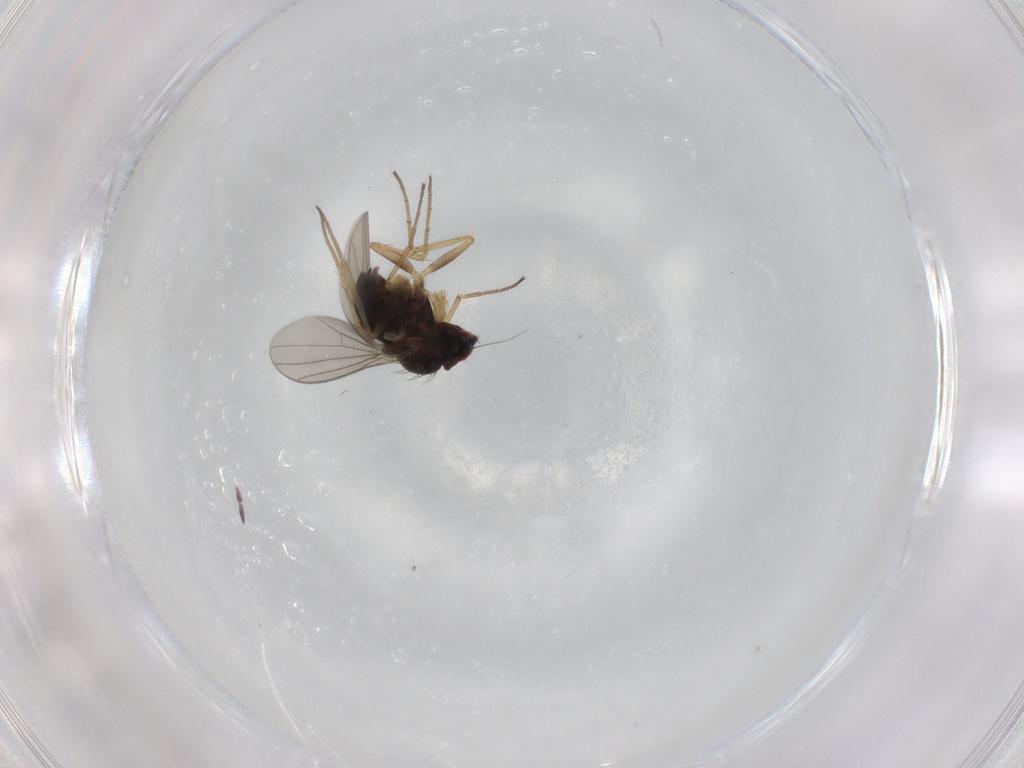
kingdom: Animalia
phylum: Arthropoda
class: Insecta
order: Diptera
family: Dolichopodidae
